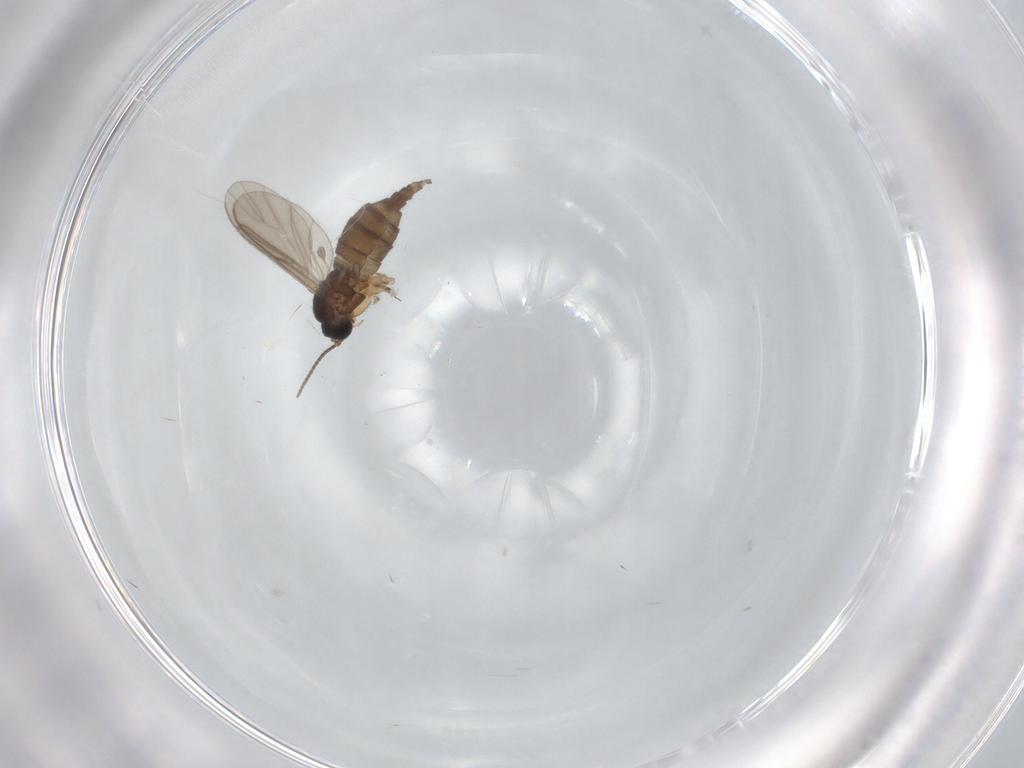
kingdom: Animalia
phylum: Arthropoda
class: Insecta
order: Diptera
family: Sciaridae
